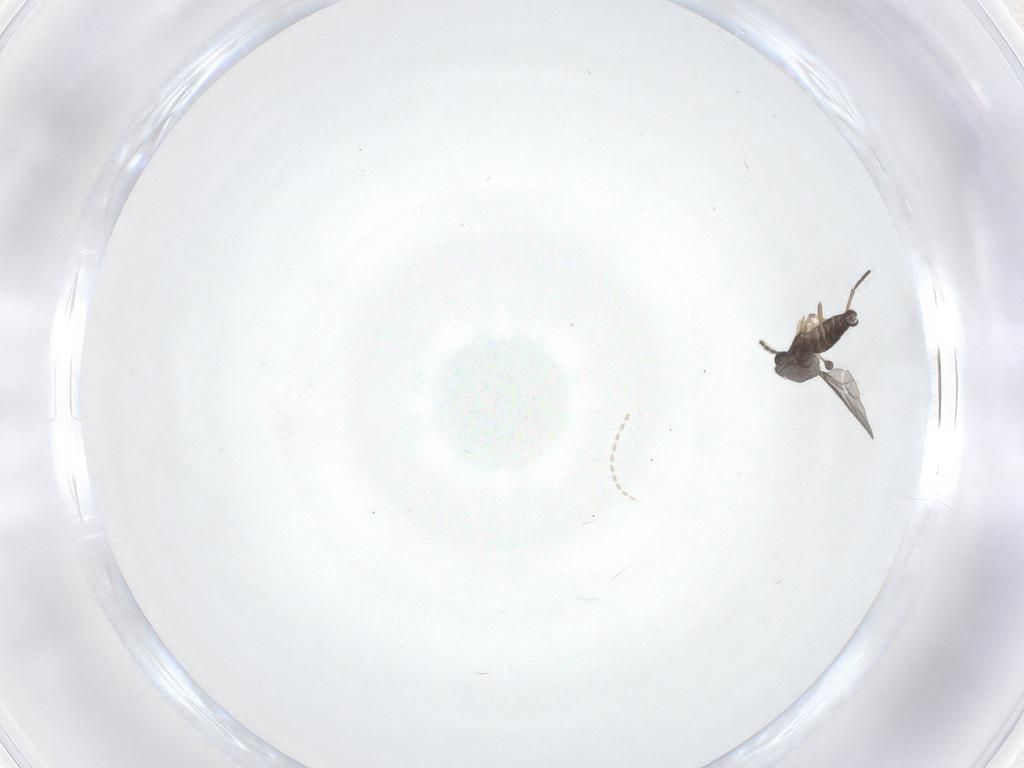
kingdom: Animalia
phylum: Arthropoda
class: Insecta
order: Diptera
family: Cecidomyiidae
